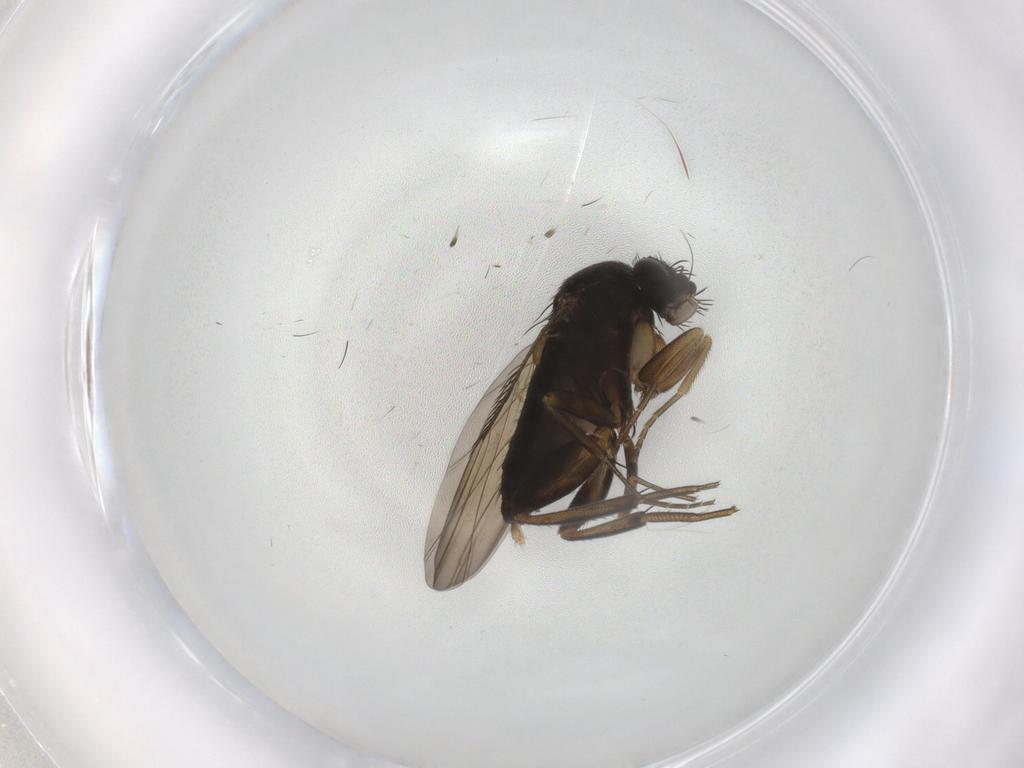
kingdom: Animalia
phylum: Arthropoda
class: Insecta
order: Diptera
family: Phoridae
